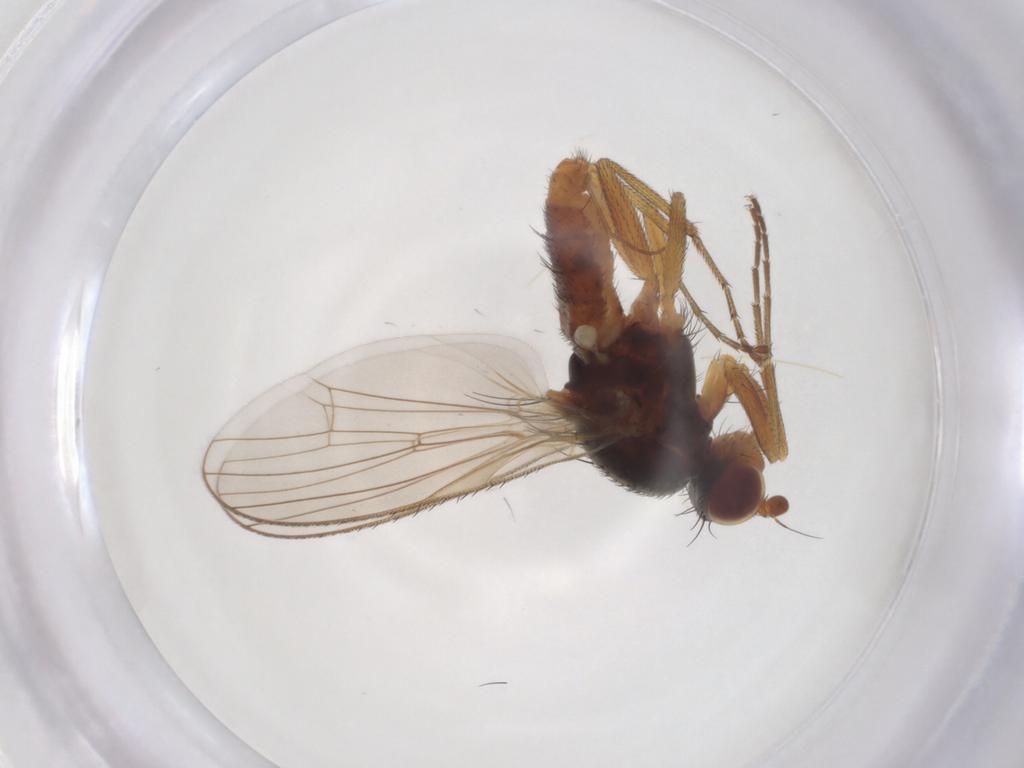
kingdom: Animalia
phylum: Arthropoda
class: Insecta
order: Diptera
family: Heleomyzidae
